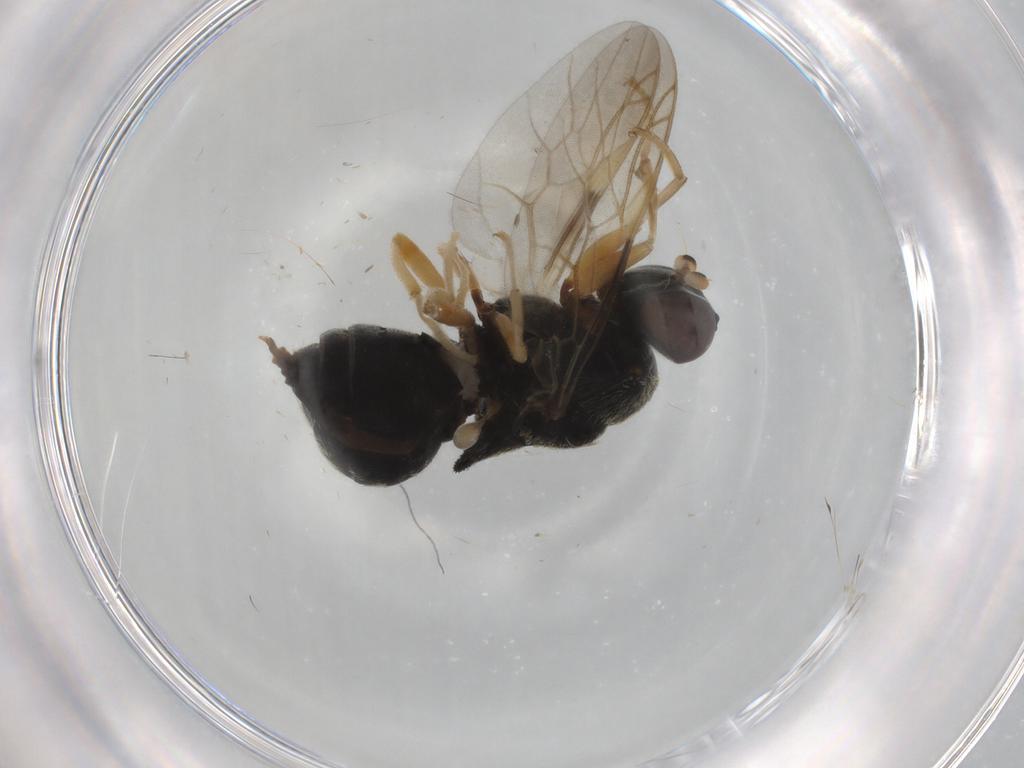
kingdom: Animalia
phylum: Arthropoda
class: Insecta
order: Diptera
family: Stratiomyidae
